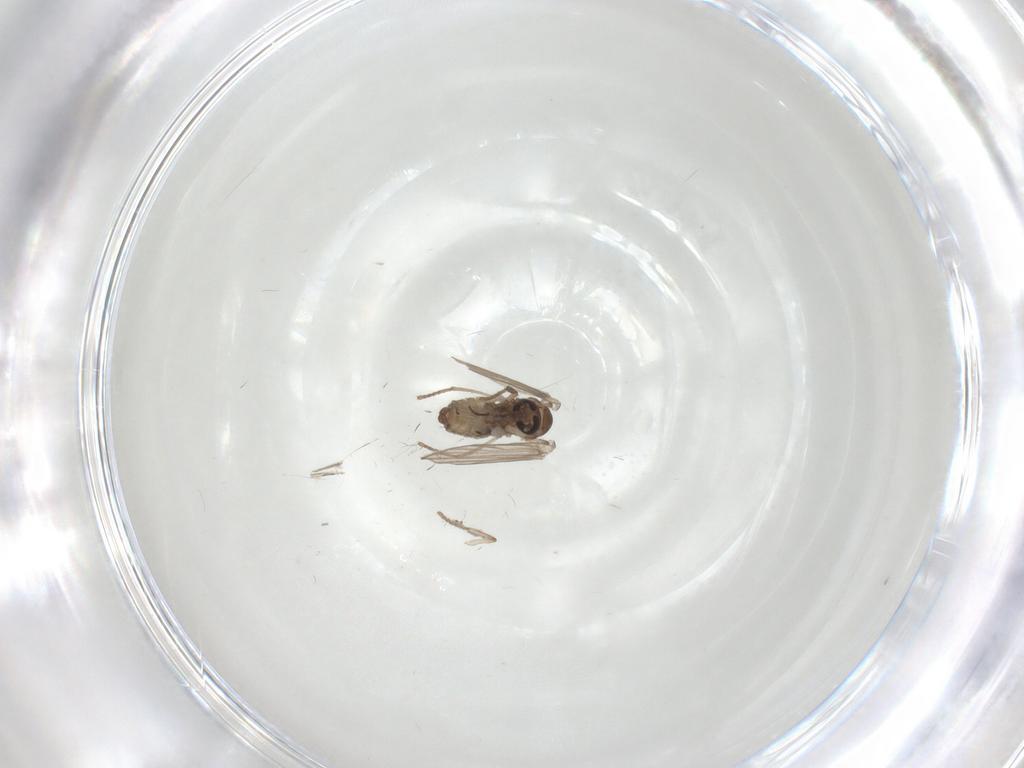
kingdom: Animalia
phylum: Arthropoda
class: Insecta
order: Diptera
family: Psychodidae
